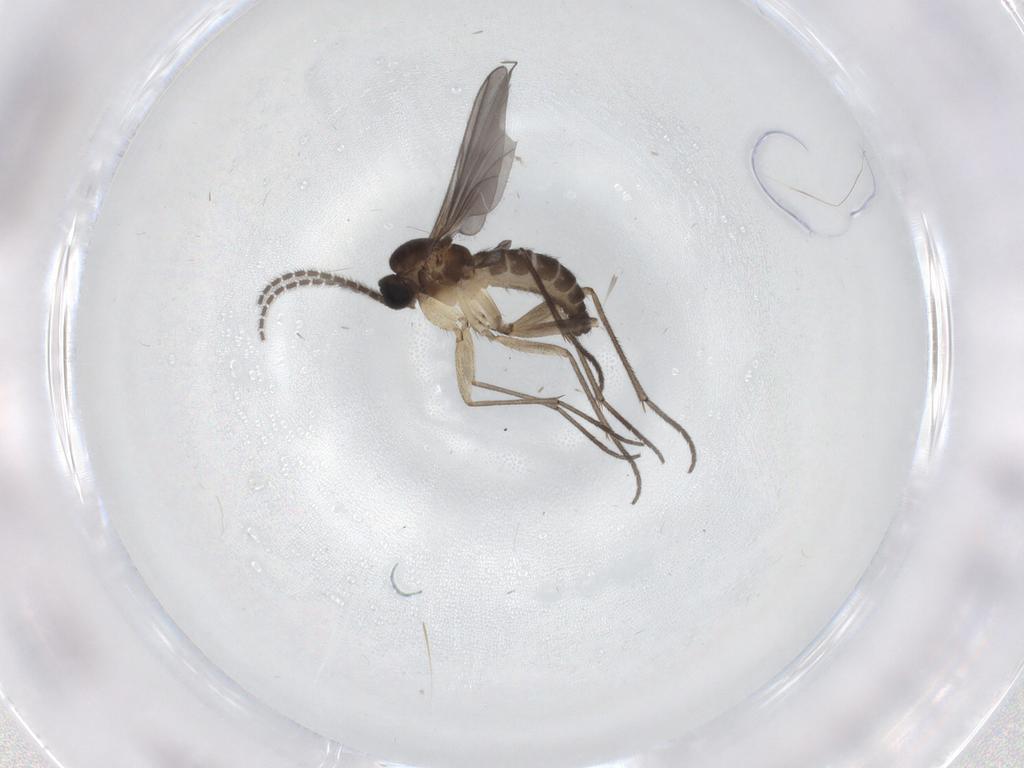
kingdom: Animalia
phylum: Arthropoda
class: Insecta
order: Diptera
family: Sciaridae
